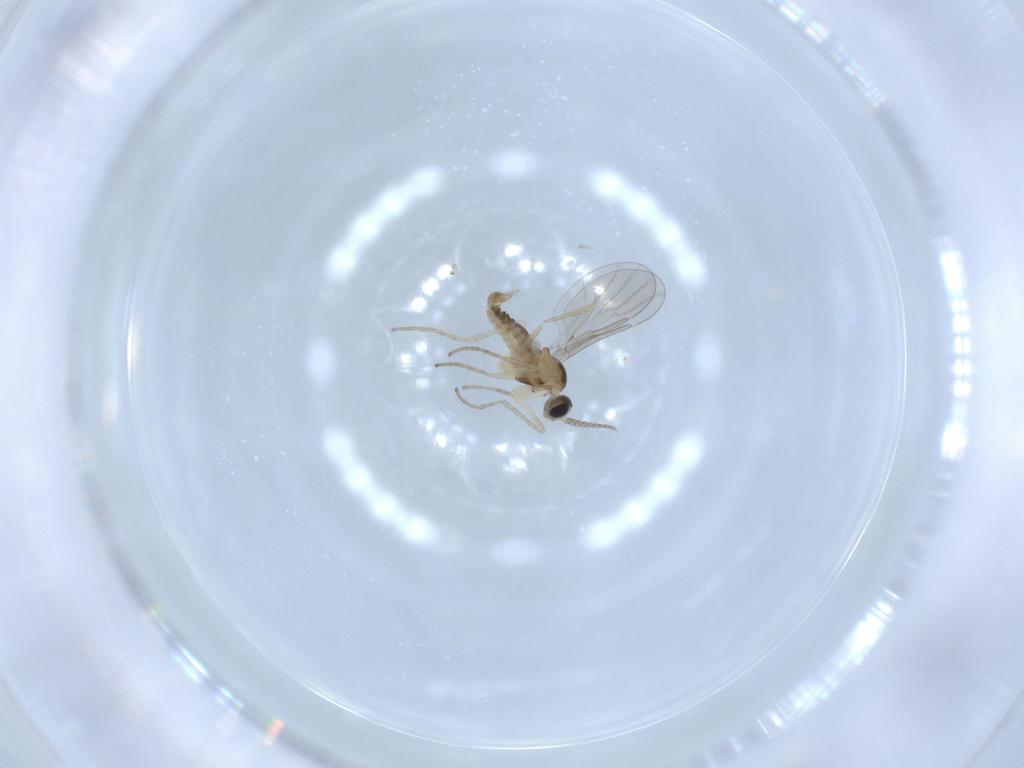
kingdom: Animalia
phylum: Arthropoda
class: Insecta
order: Diptera
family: Cecidomyiidae
